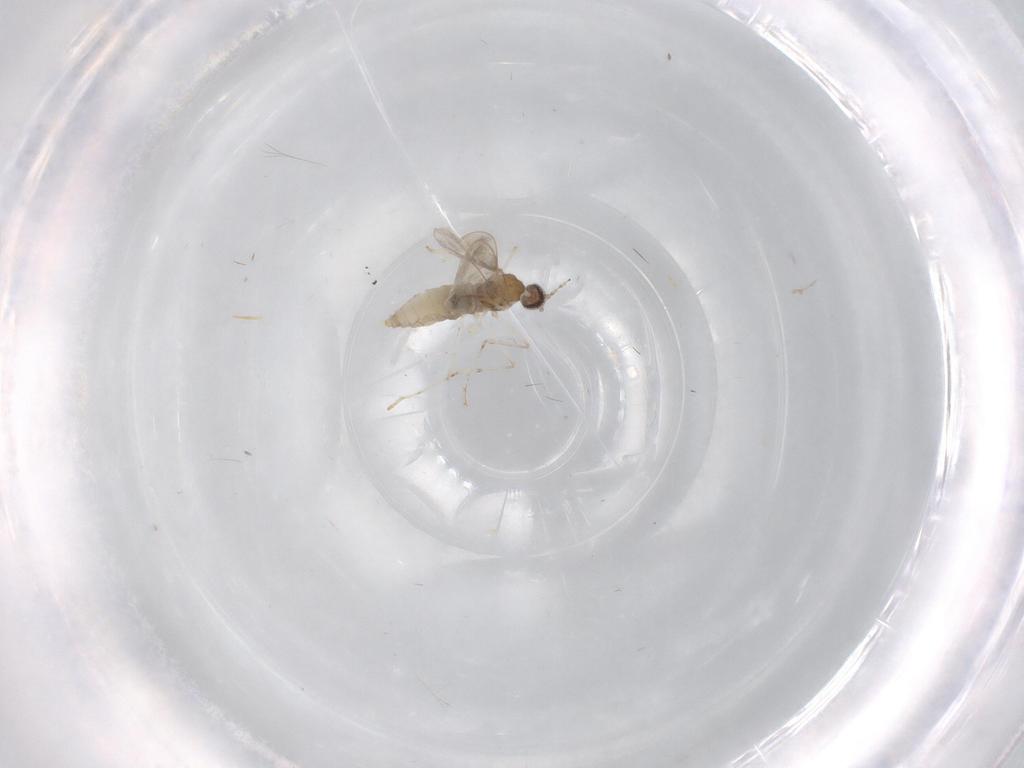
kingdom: Animalia
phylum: Arthropoda
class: Insecta
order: Diptera
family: Cecidomyiidae
